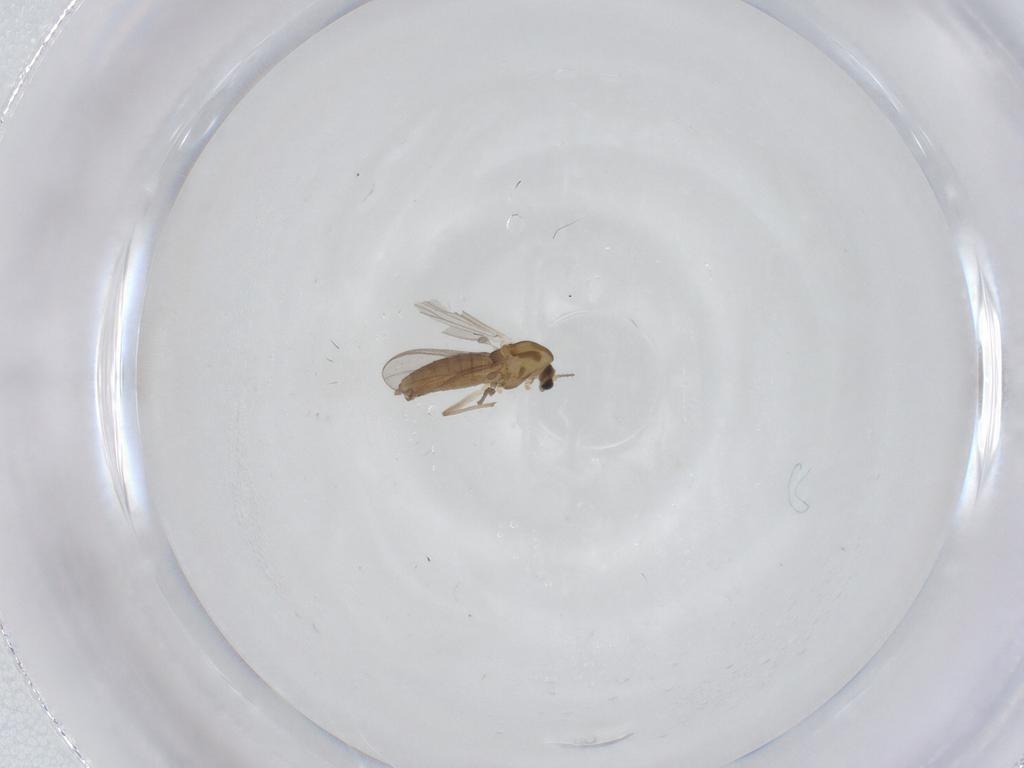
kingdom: Animalia
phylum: Arthropoda
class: Insecta
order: Diptera
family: Chironomidae
